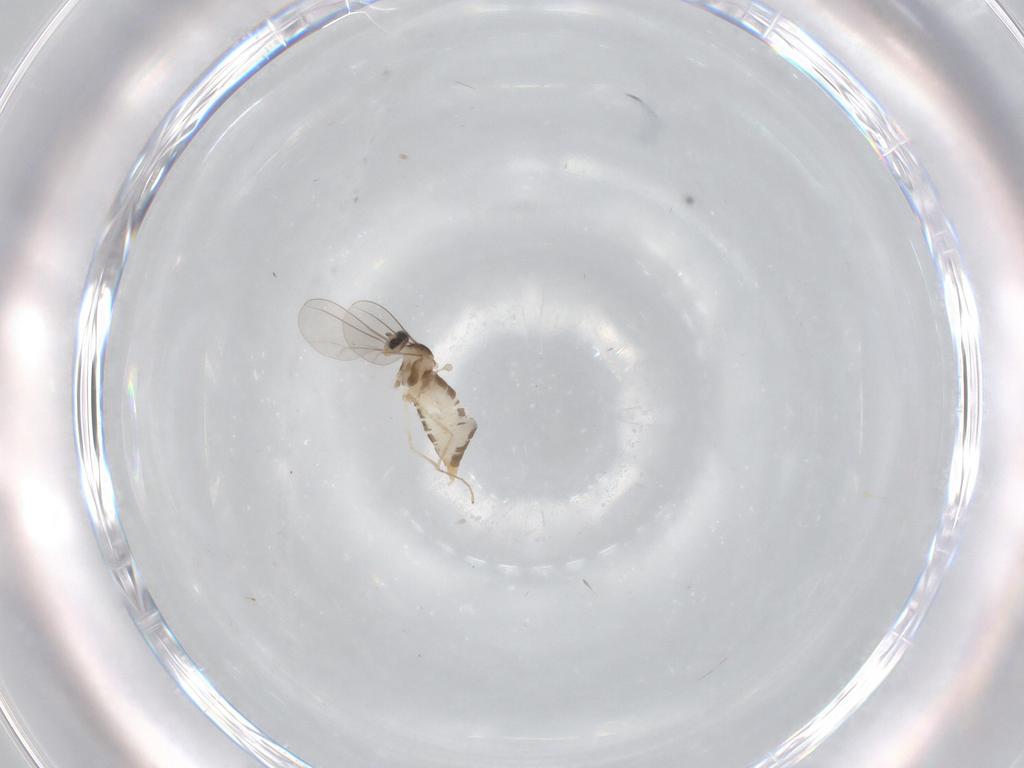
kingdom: Animalia
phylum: Arthropoda
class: Insecta
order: Diptera
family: Cecidomyiidae
